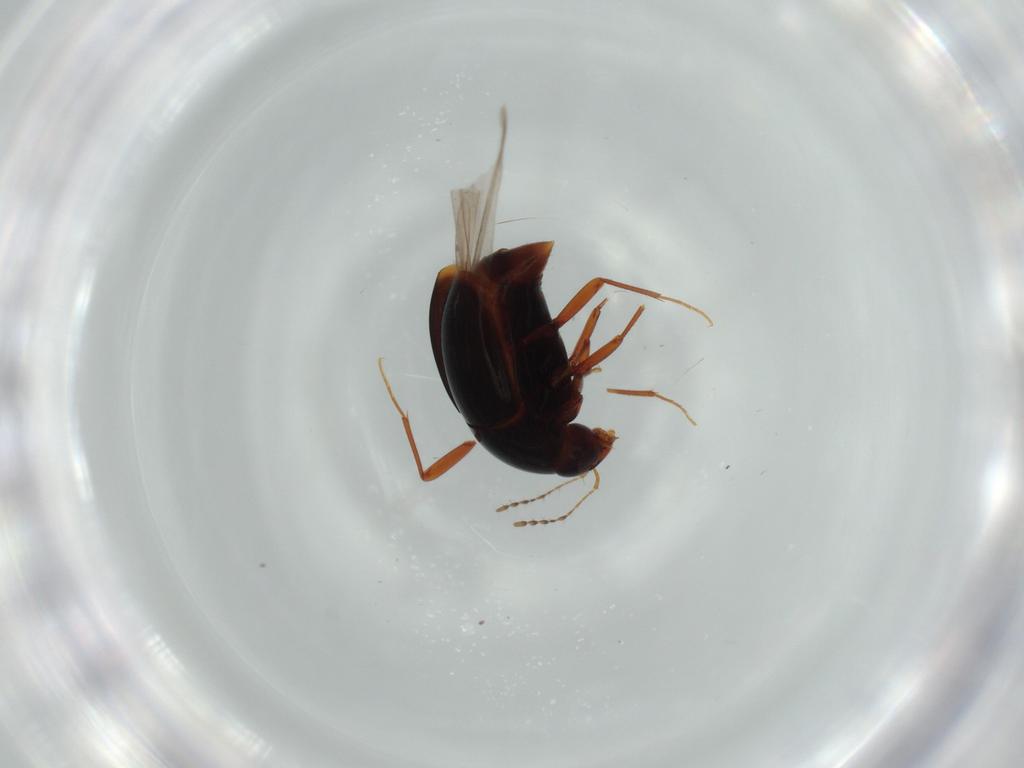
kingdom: Animalia
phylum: Arthropoda
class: Insecta
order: Coleoptera
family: Staphylinidae
